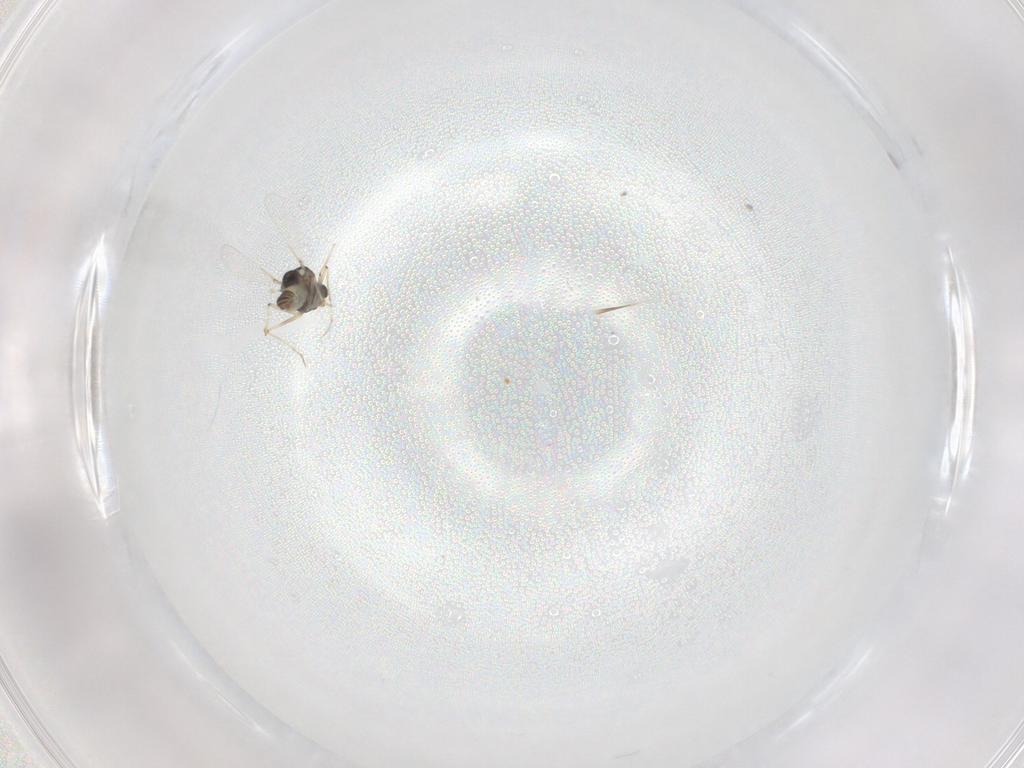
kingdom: Animalia
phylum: Arthropoda
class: Insecta
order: Diptera
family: Chironomidae
